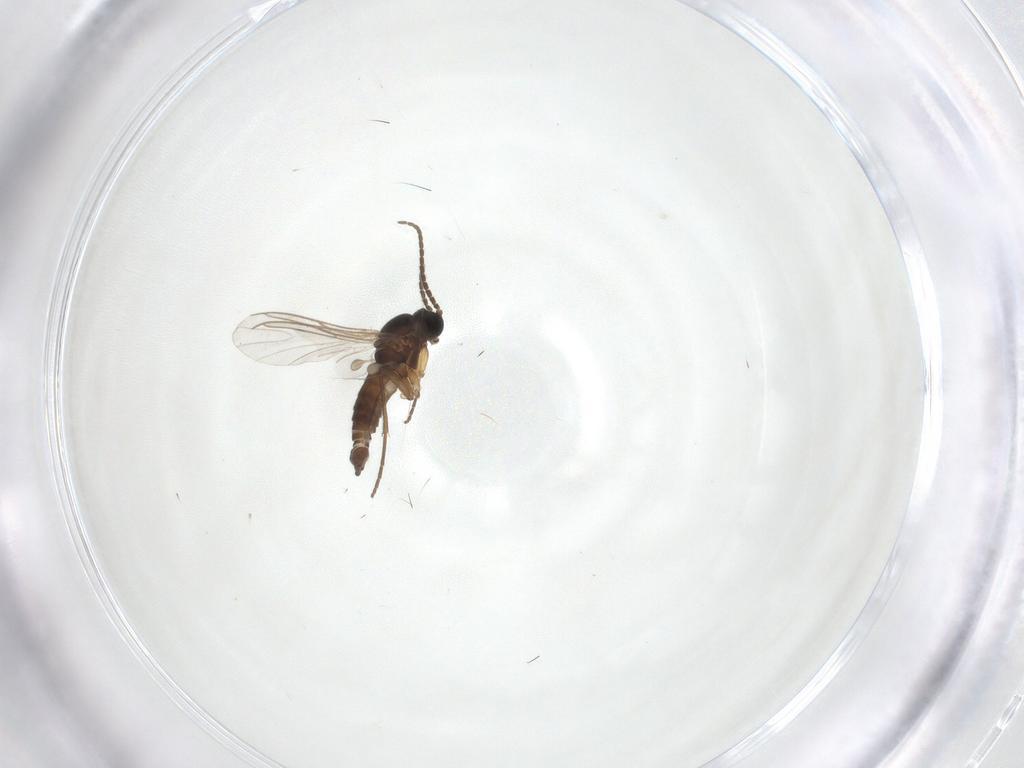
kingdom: Animalia
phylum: Arthropoda
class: Insecta
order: Diptera
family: Sciaridae
